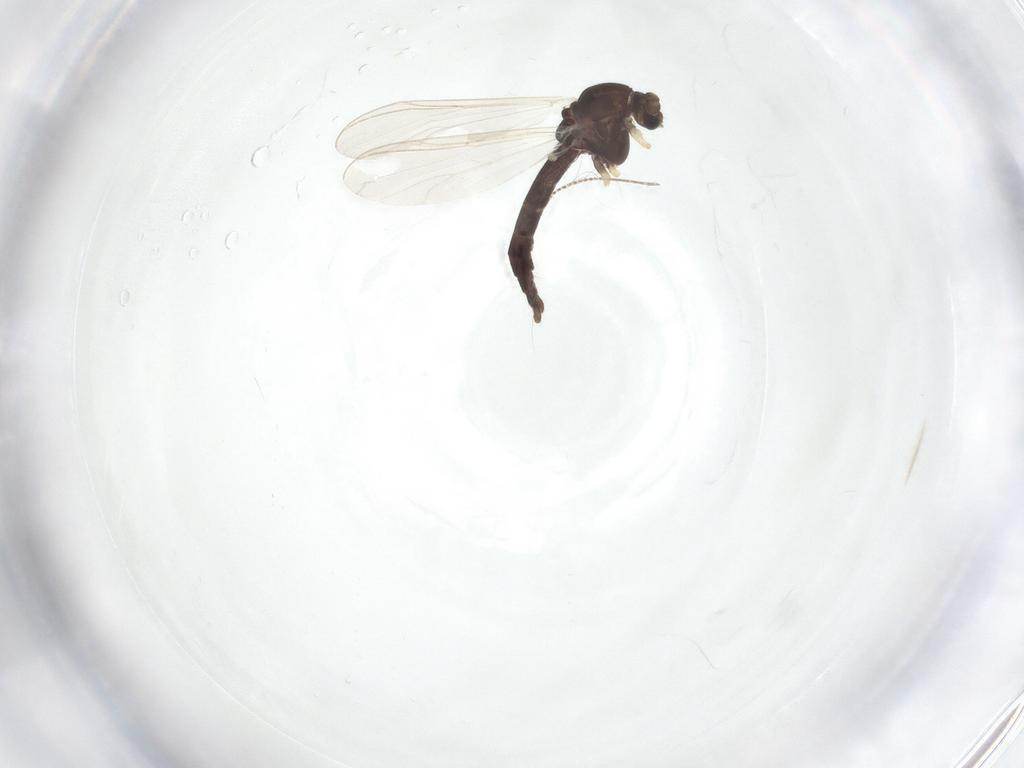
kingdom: Animalia
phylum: Arthropoda
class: Insecta
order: Diptera
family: Chironomidae
